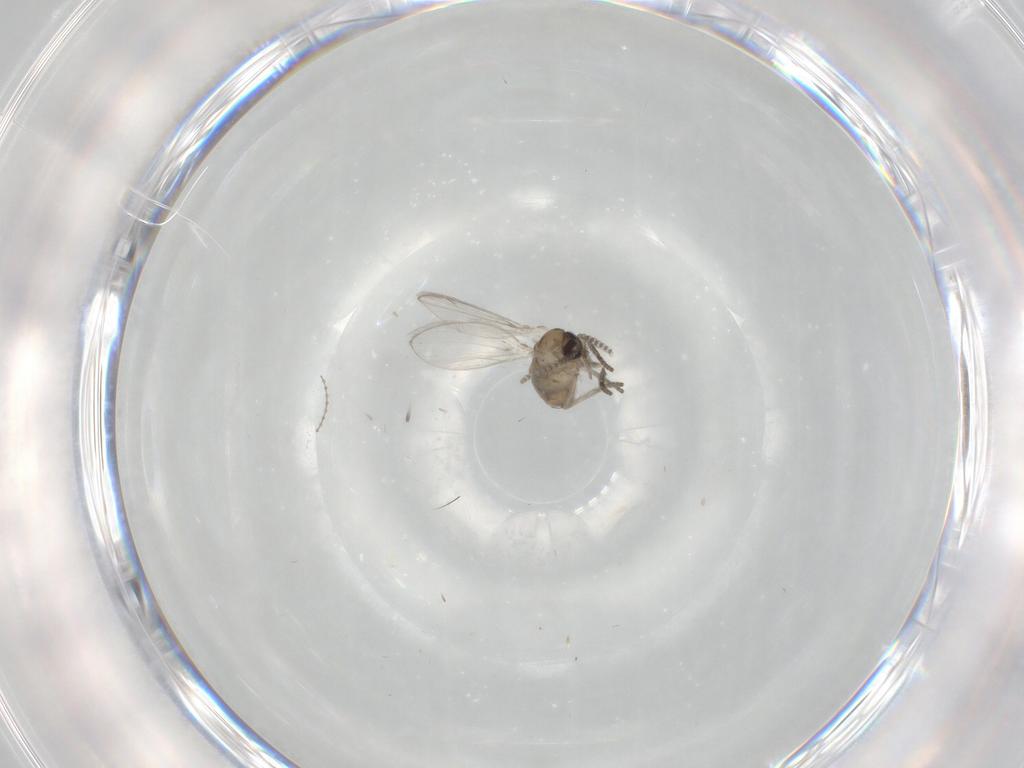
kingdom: Animalia
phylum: Arthropoda
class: Insecta
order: Diptera
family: Psychodidae
